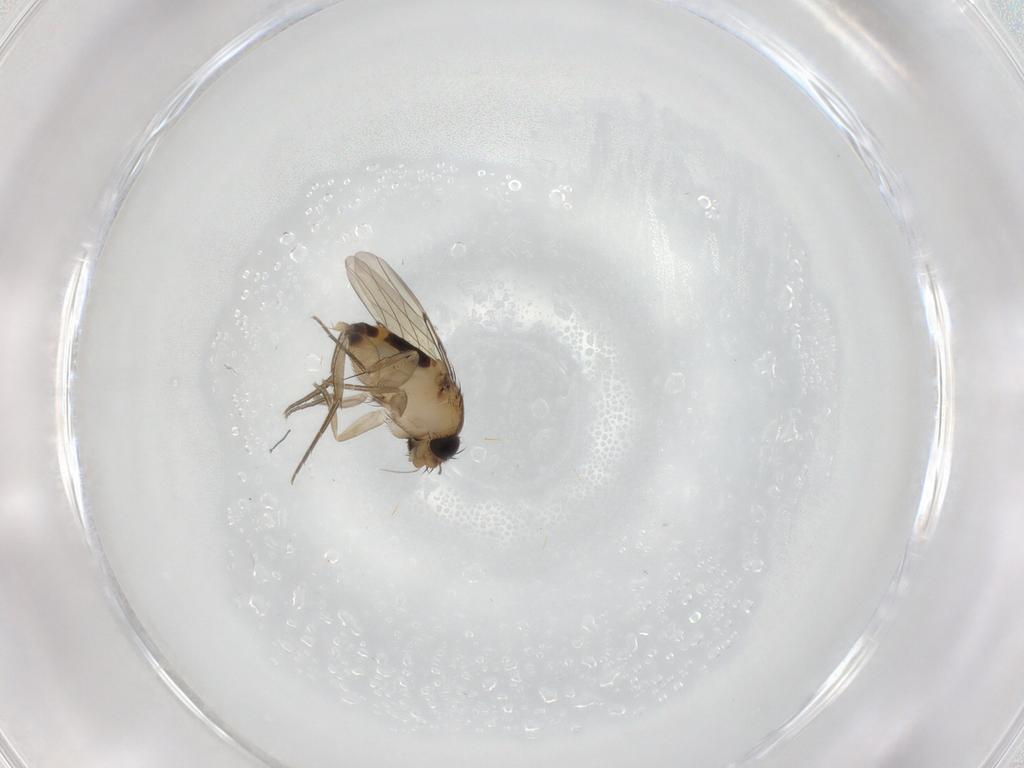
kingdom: Animalia
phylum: Arthropoda
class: Insecta
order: Diptera
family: Phoridae
